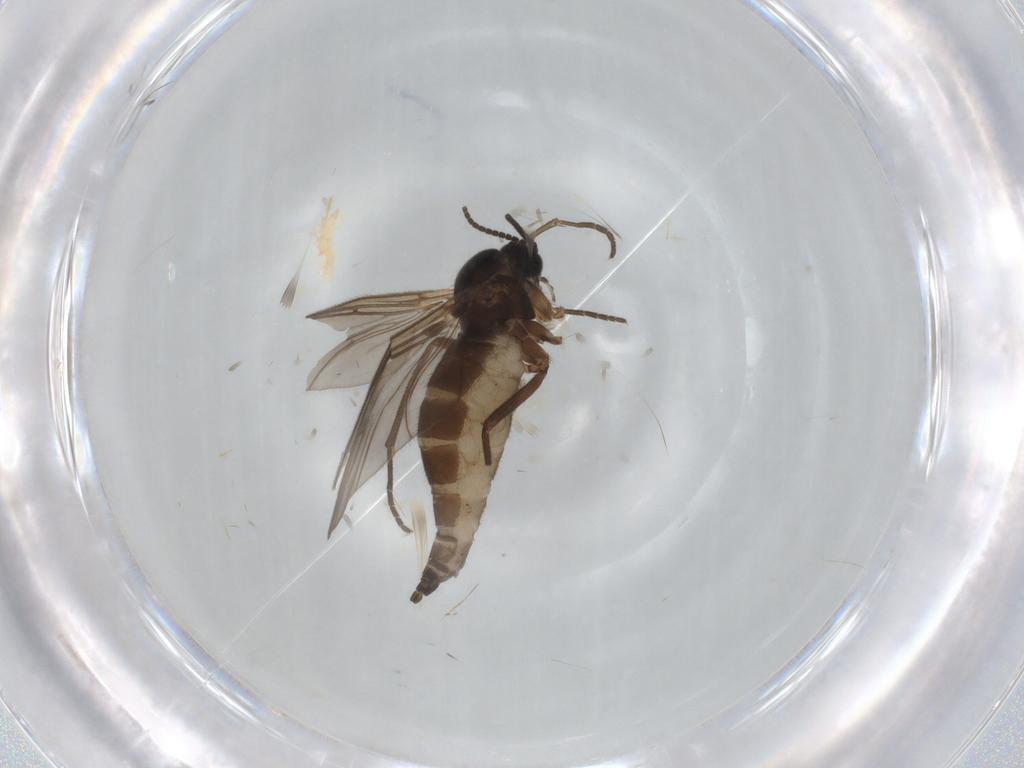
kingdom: Animalia
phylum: Arthropoda
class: Insecta
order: Diptera
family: Sciaridae
